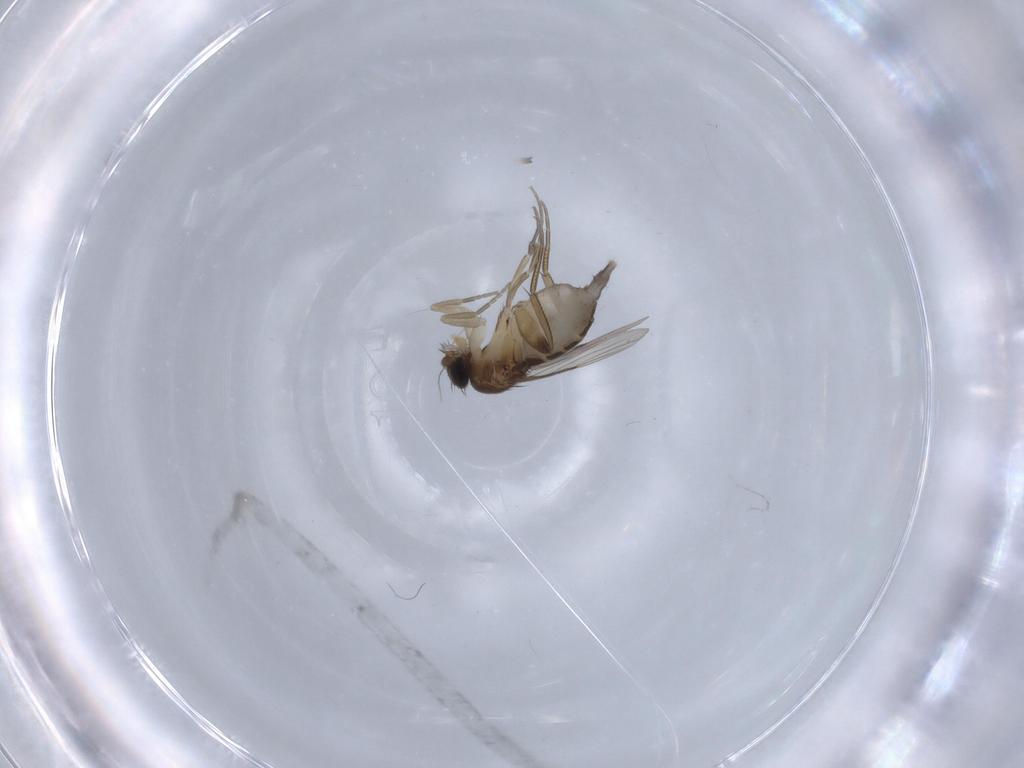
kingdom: Animalia
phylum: Arthropoda
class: Insecta
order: Diptera
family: Phoridae
